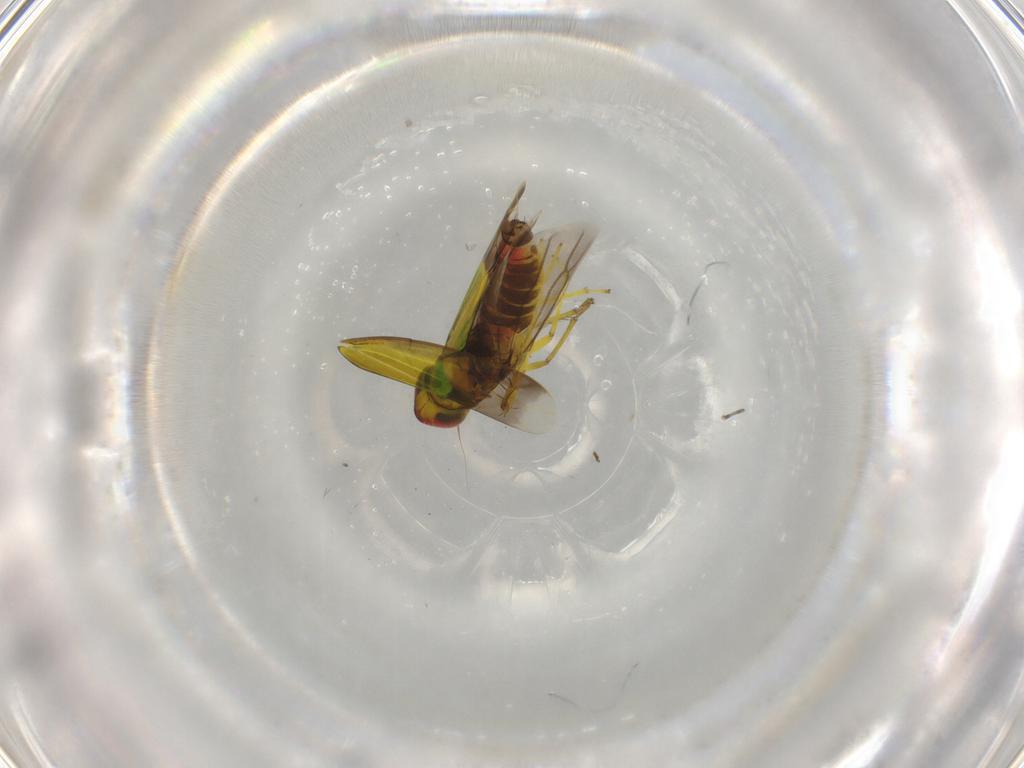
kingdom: Animalia
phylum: Arthropoda
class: Insecta
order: Hemiptera
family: Cicadellidae
